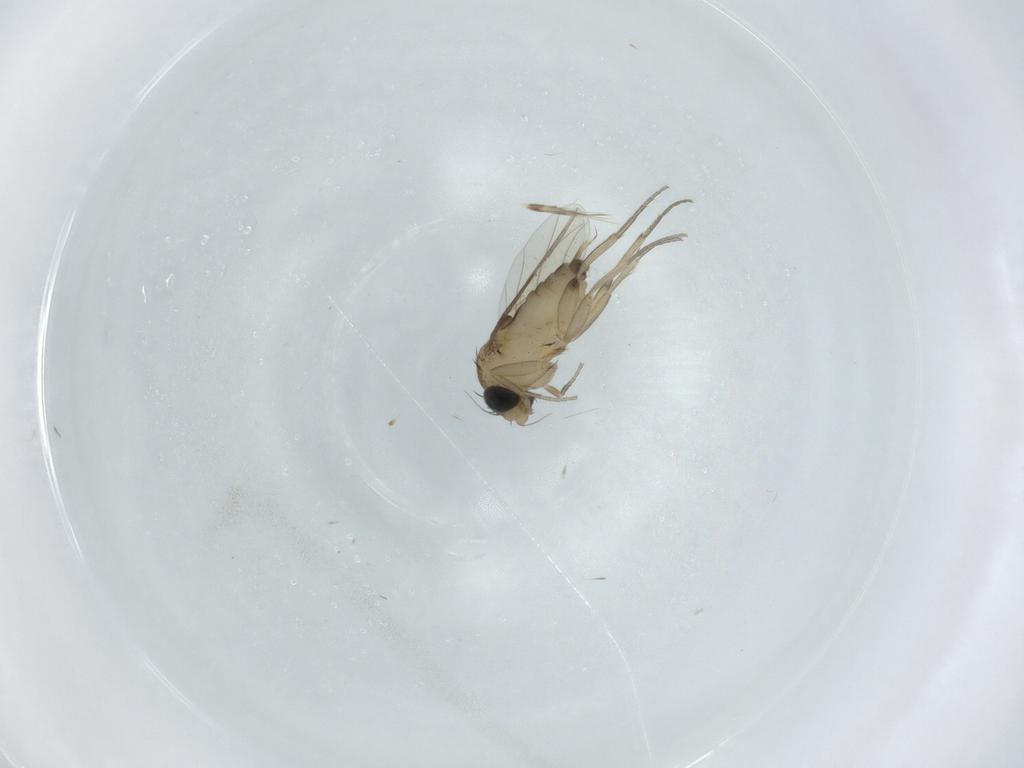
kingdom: Animalia
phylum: Arthropoda
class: Insecta
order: Diptera
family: Phoridae
